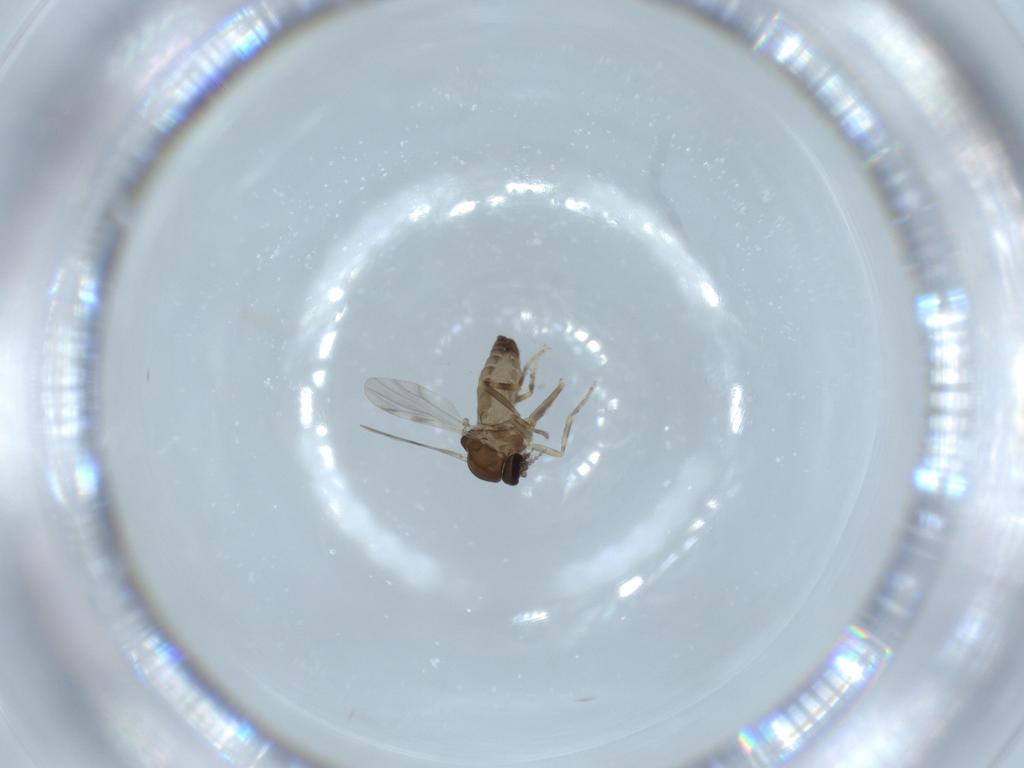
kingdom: Animalia
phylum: Arthropoda
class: Insecta
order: Diptera
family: Ceratopogonidae
